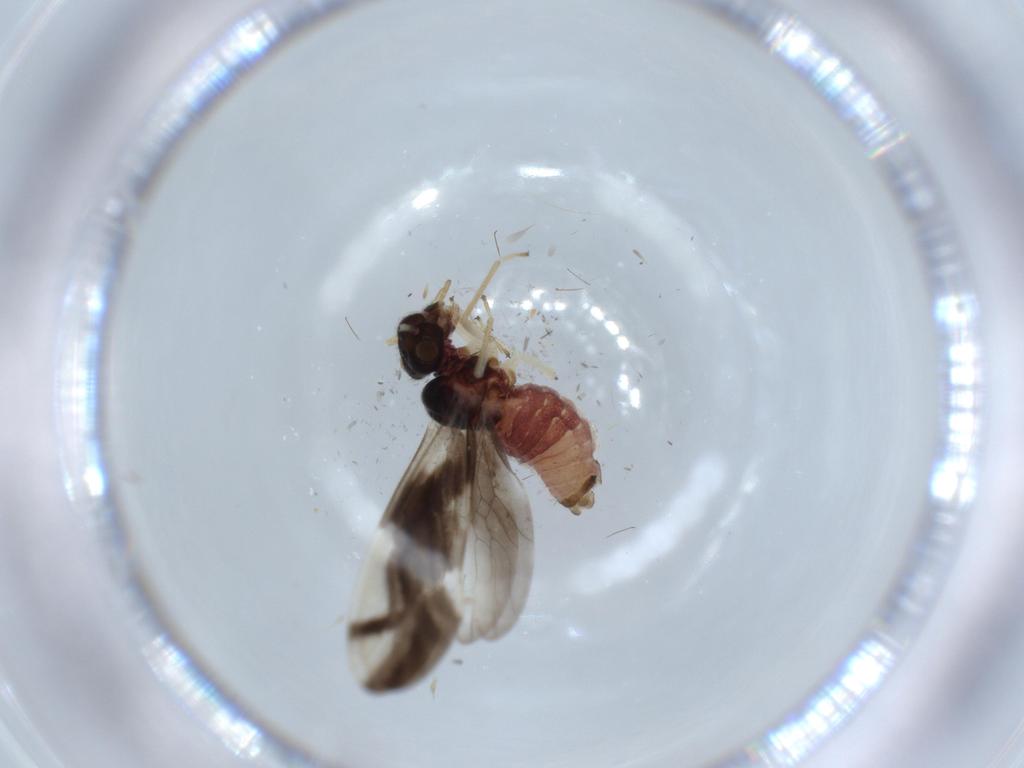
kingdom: Animalia
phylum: Arthropoda
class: Insecta
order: Psocodea
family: Caeciliusidae
